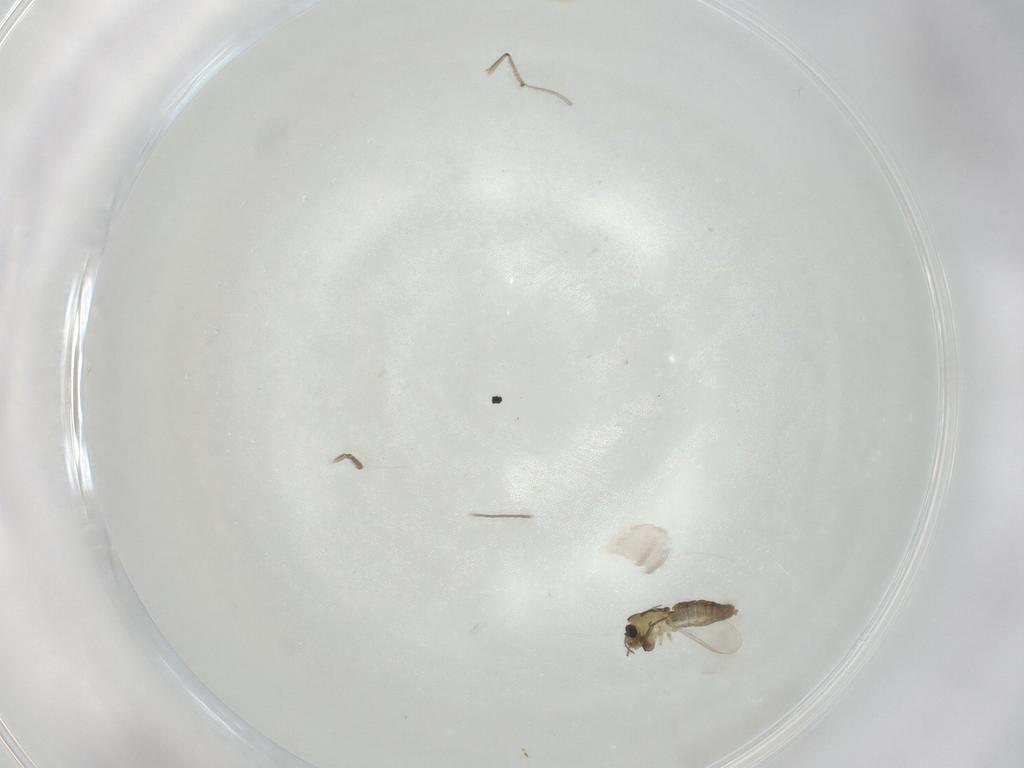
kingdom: Animalia
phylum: Arthropoda
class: Insecta
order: Diptera
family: Chironomidae
